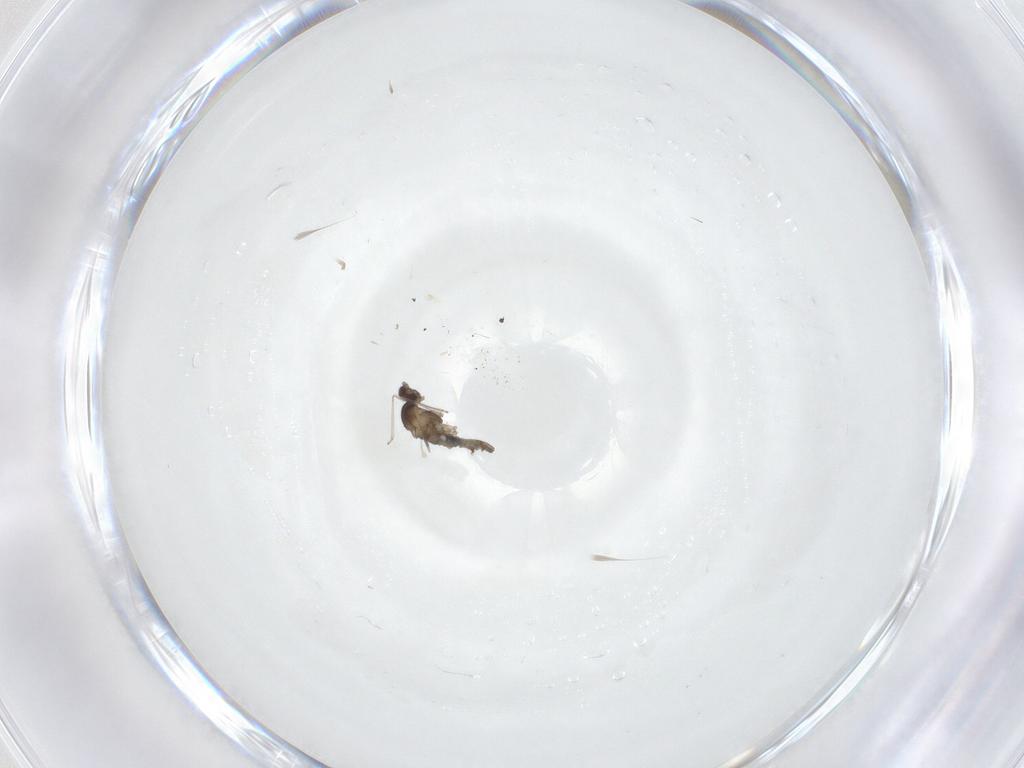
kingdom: Animalia
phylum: Arthropoda
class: Insecta
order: Diptera
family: Cecidomyiidae
